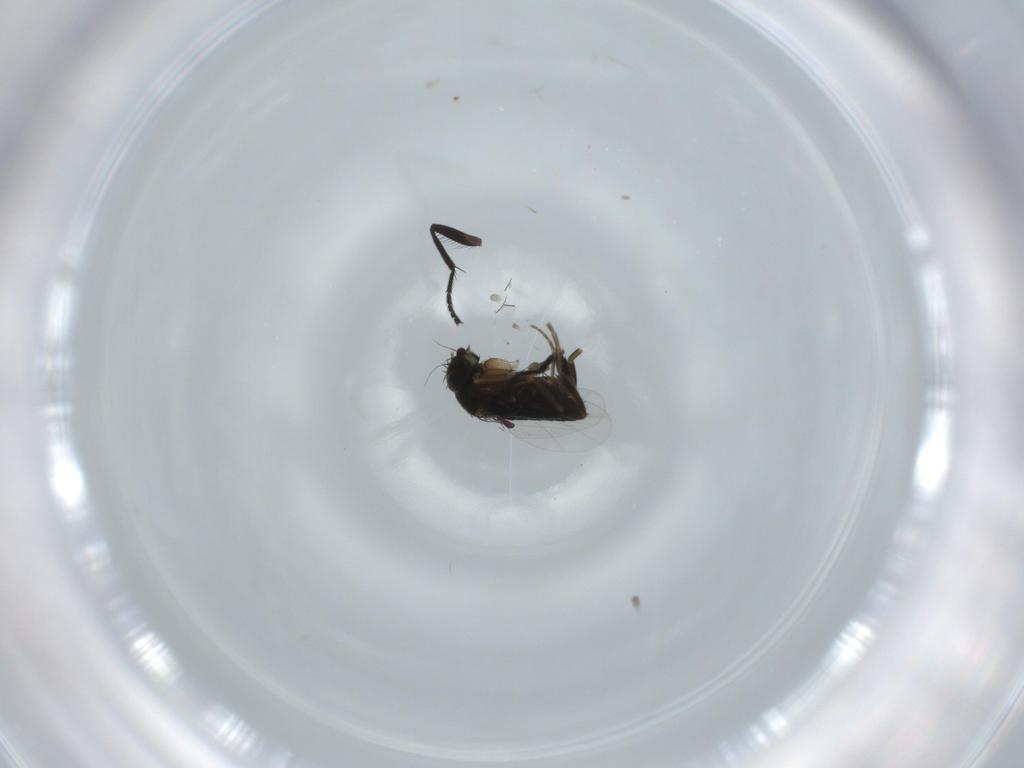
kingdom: Animalia
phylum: Arthropoda
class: Insecta
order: Diptera
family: Phoridae
